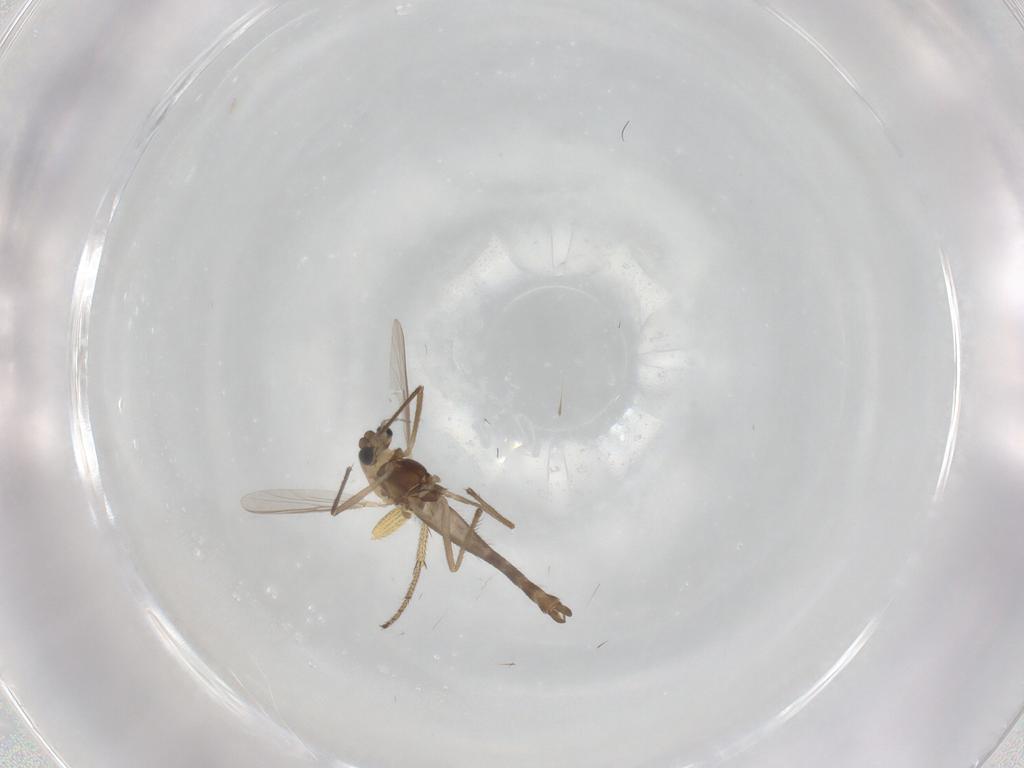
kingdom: Animalia
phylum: Arthropoda
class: Insecta
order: Diptera
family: Chironomidae
